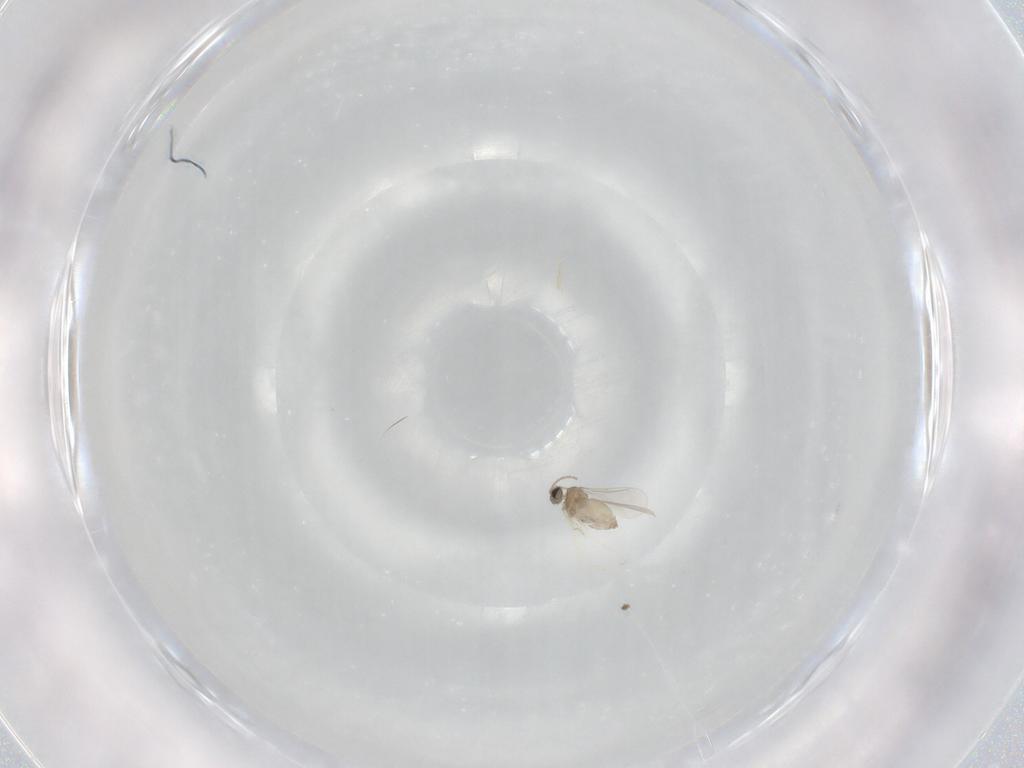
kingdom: Animalia
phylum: Arthropoda
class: Insecta
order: Diptera
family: Cecidomyiidae
